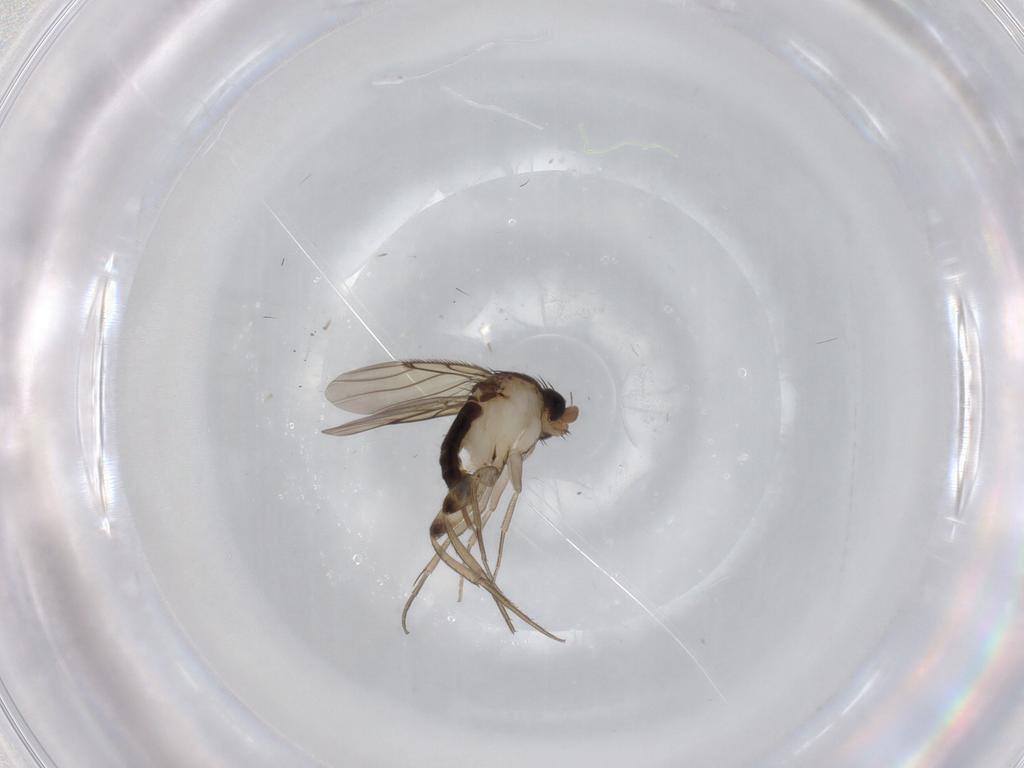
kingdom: Animalia
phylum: Arthropoda
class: Insecta
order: Diptera
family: Phoridae
